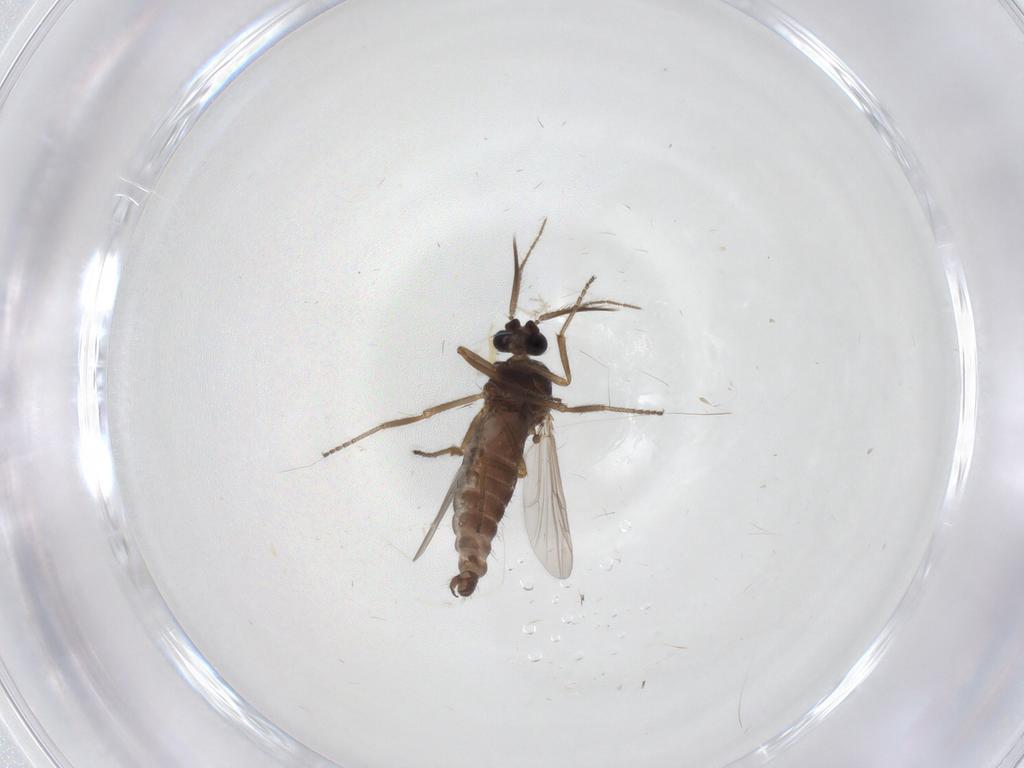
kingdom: Animalia
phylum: Arthropoda
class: Insecta
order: Diptera
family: Ceratopogonidae
